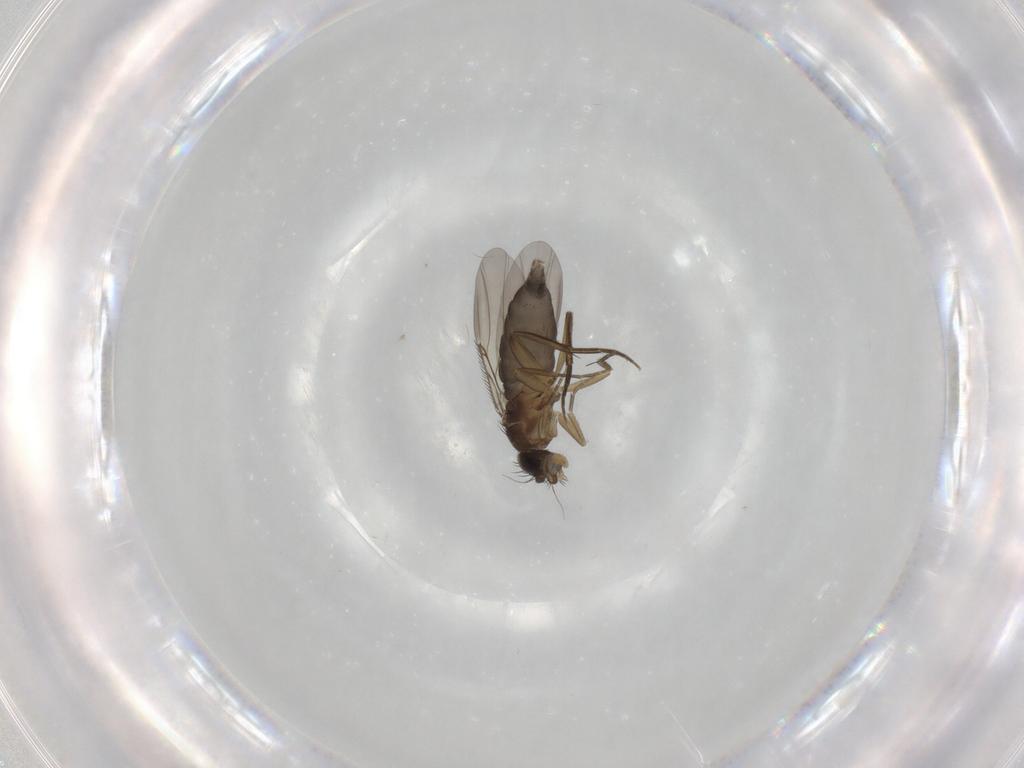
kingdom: Animalia
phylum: Arthropoda
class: Insecta
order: Diptera
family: Phoridae
